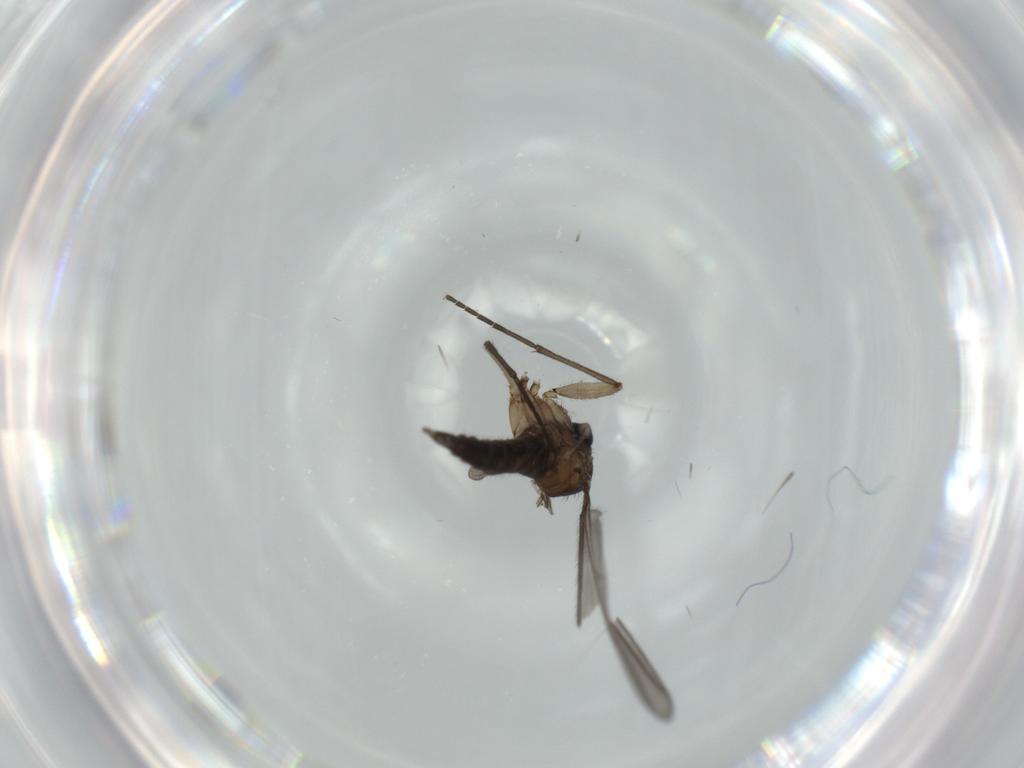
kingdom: Animalia
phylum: Arthropoda
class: Insecta
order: Diptera
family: Sciaridae
